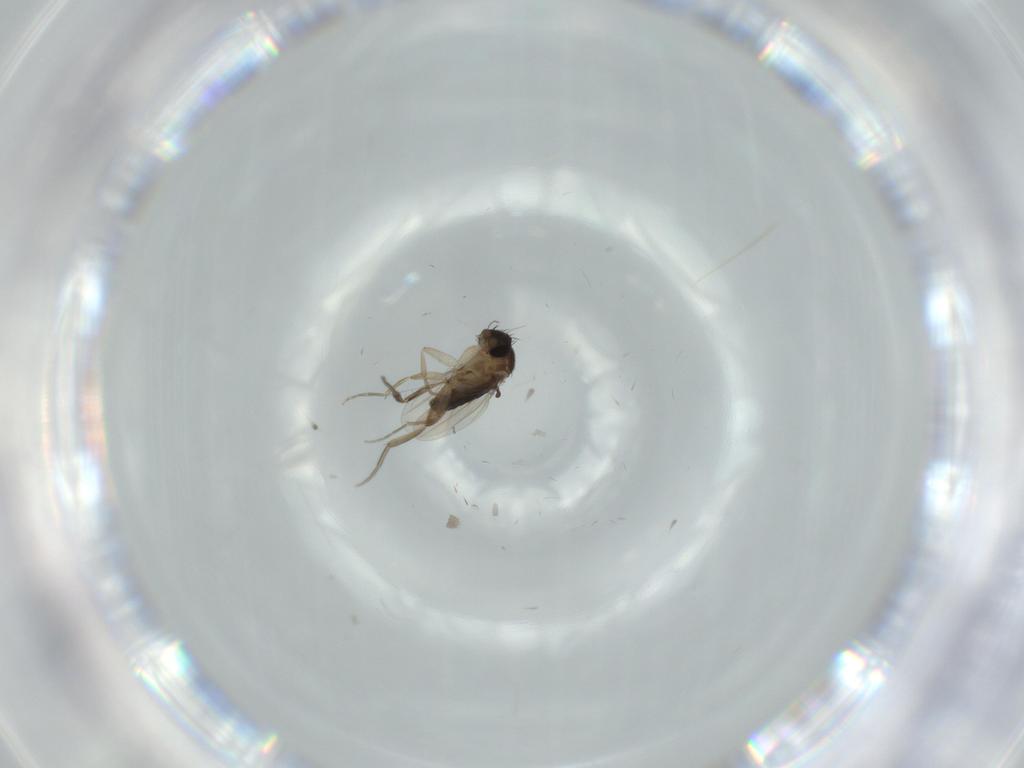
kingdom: Animalia
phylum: Arthropoda
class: Insecta
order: Diptera
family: Phoridae
